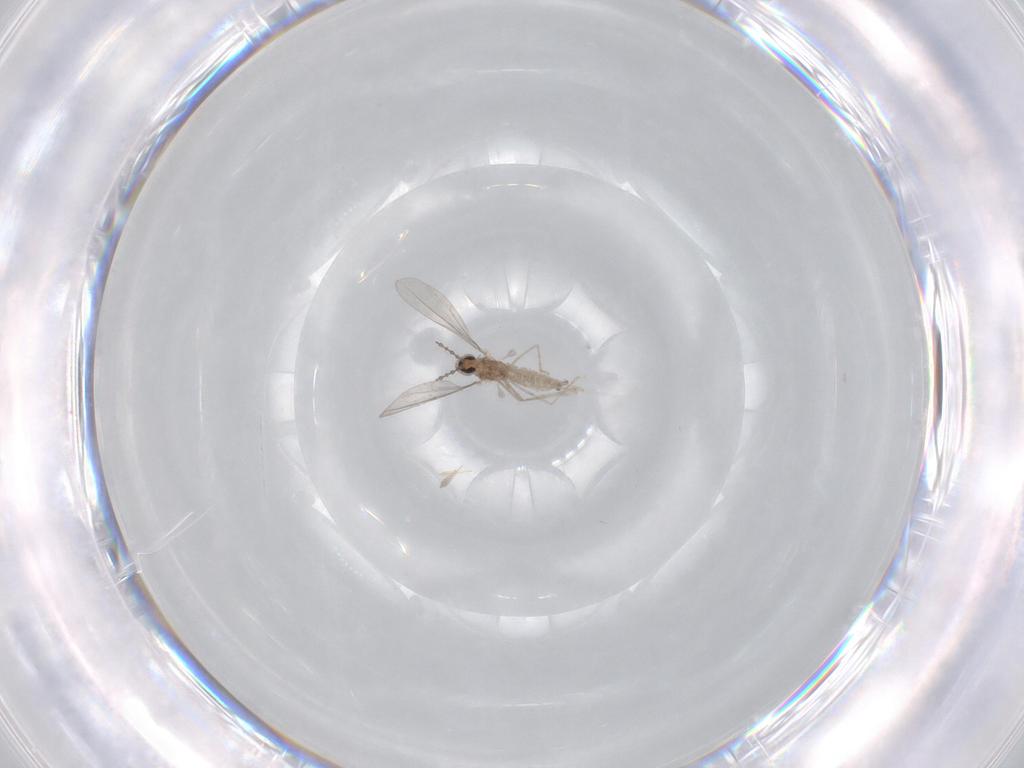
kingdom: Animalia
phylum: Arthropoda
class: Insecta
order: Diptera
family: Cecidomyiidae
